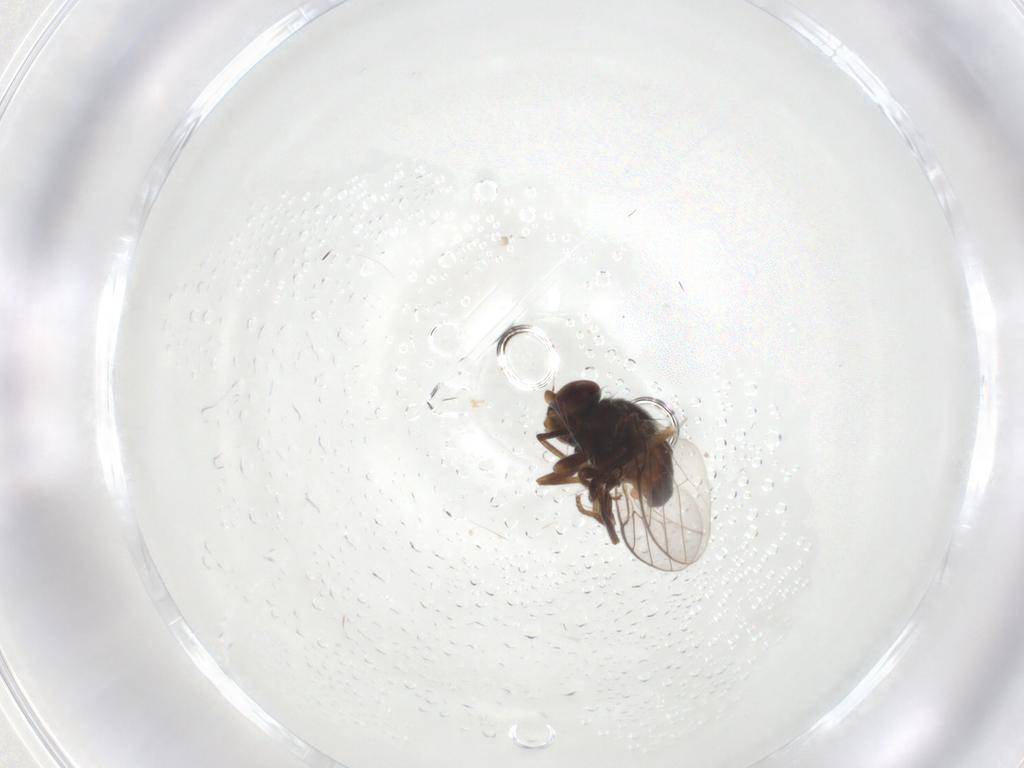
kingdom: Animalia
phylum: Arthropoda
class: Insecta
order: Diptera
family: Chloropidae
